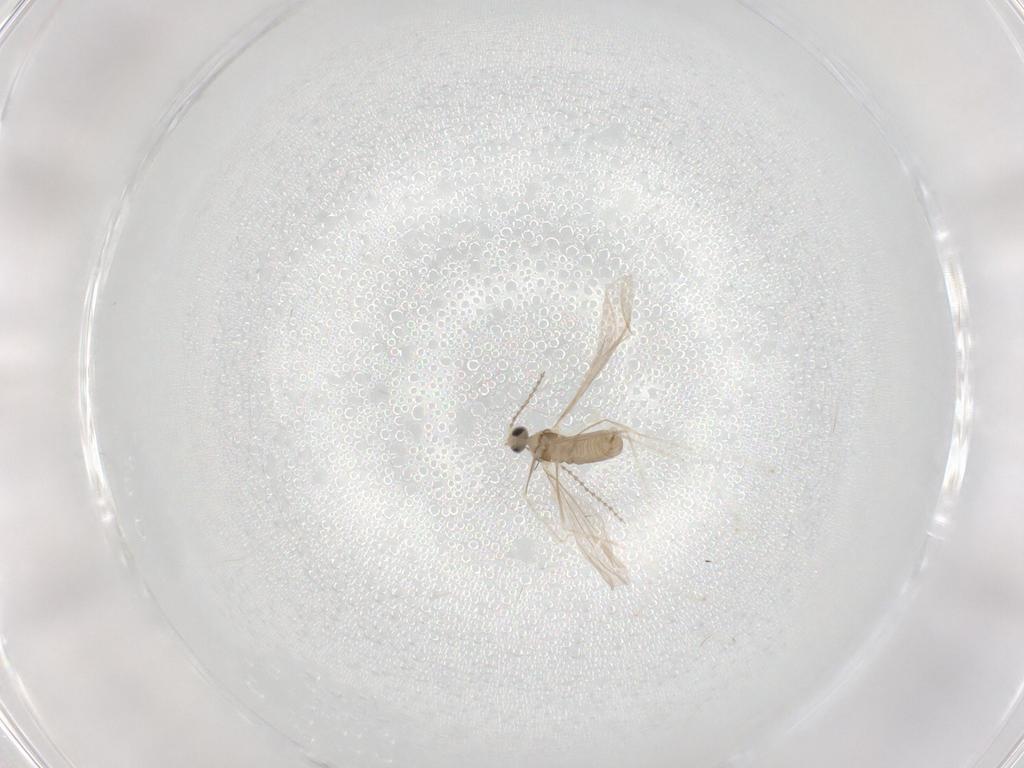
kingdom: Animalia
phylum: Arthropoda
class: Insecta
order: Diptera
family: Cecidomyiidae
